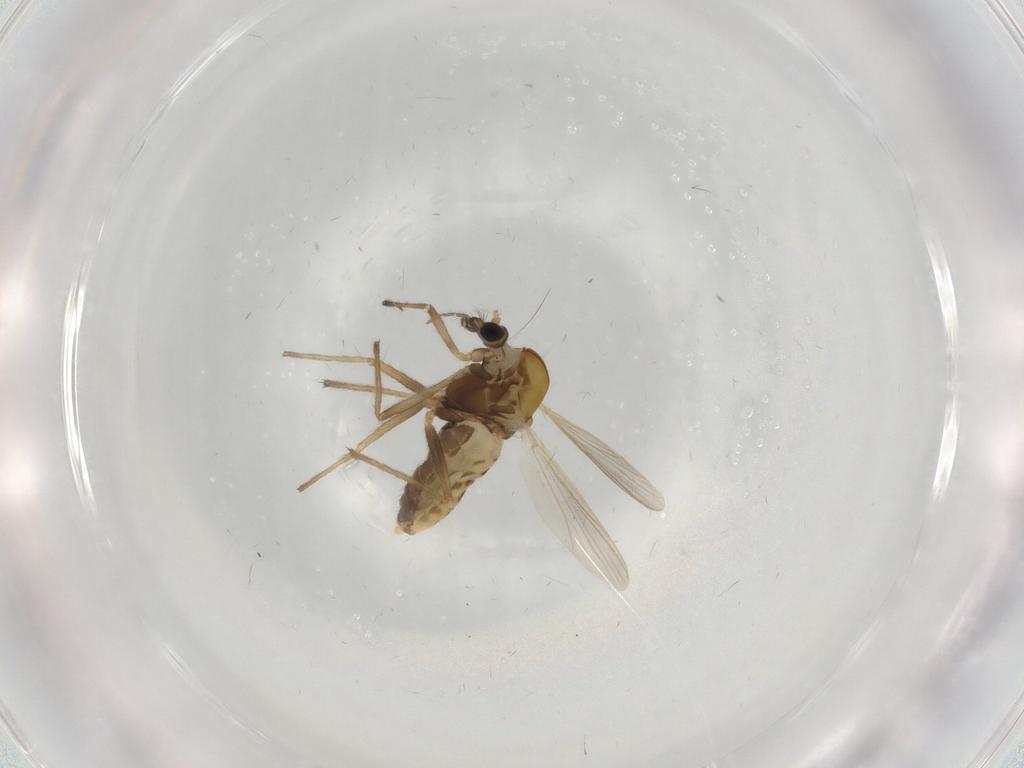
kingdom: Animalia
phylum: Arthropoda
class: Insecta
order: Diptera
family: Chironomidae
